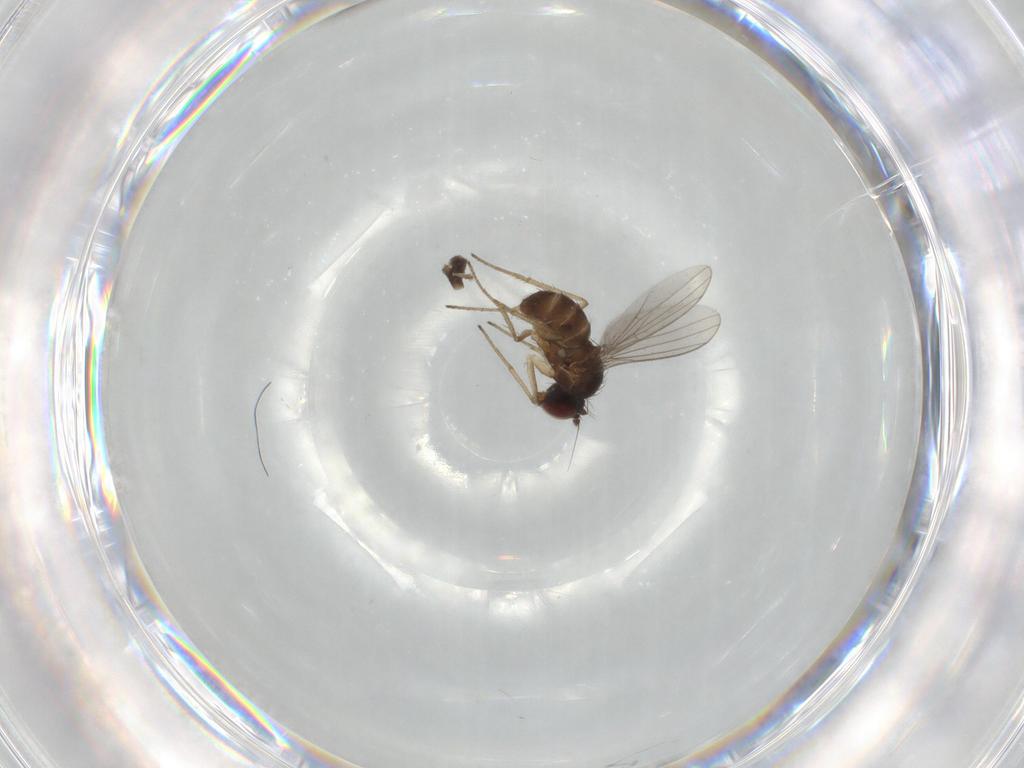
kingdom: Animalia
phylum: Arthropoda
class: Insecta
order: Diptera
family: Dolichopodidae
